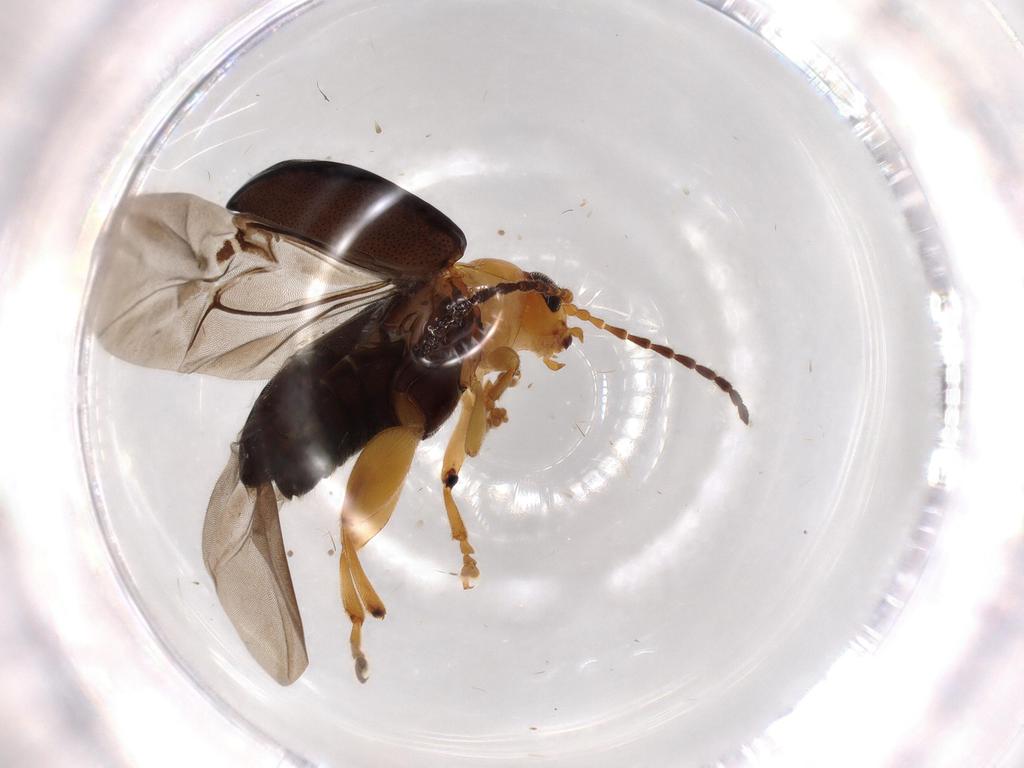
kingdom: Animalia
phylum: Arthropoda
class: Insecta
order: Coleoptera
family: Chrysomelidae
